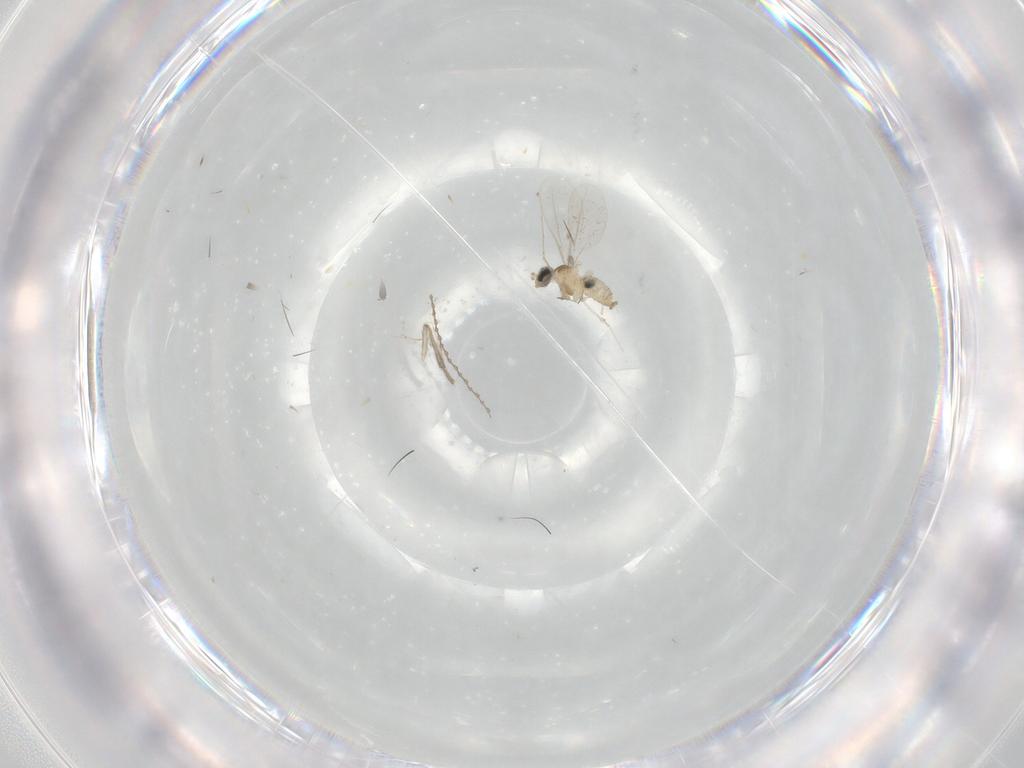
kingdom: Animalia
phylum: Arthropoda
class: Insecta
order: Diptera
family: Cecidomyiidae
